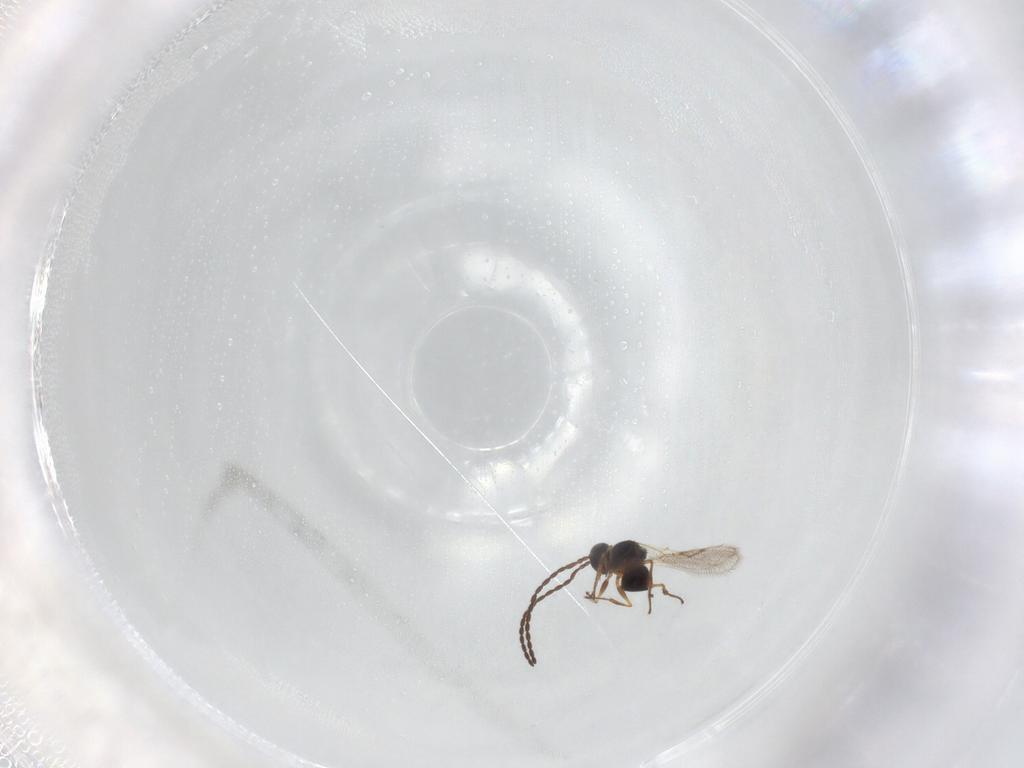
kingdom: Animalia
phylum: Arthropoda
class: Insecta
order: Hymenoptera
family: Figitidae
